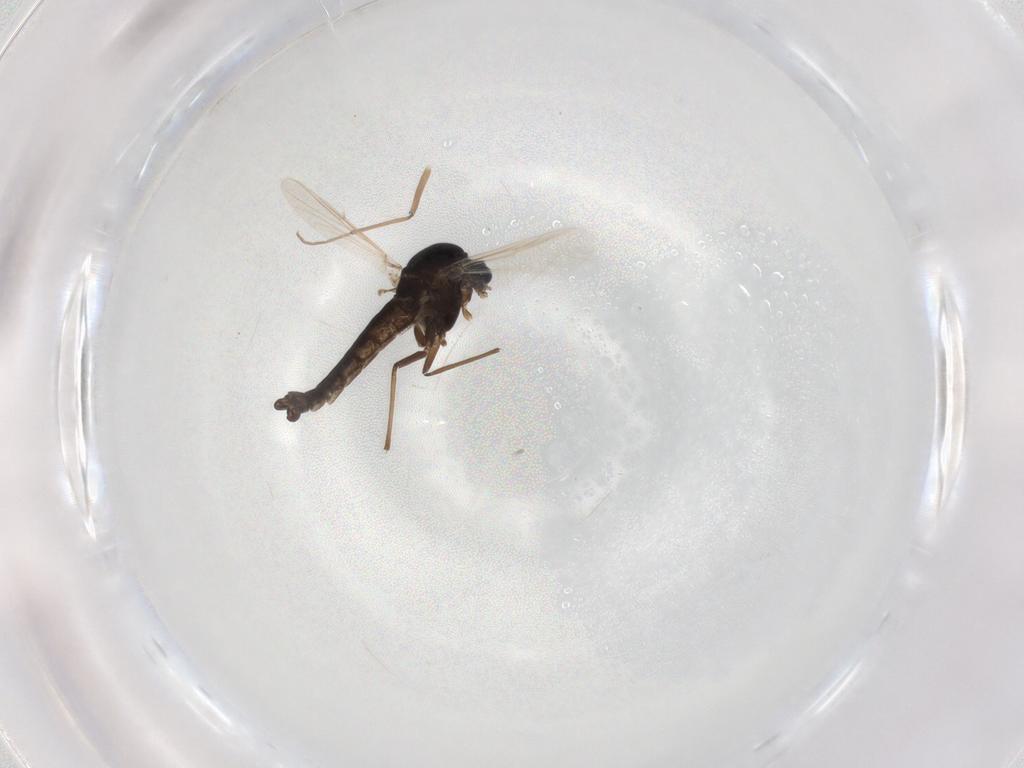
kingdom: Animalia
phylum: Arthropoda
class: Insecta
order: Diptera
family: Chironomidae
